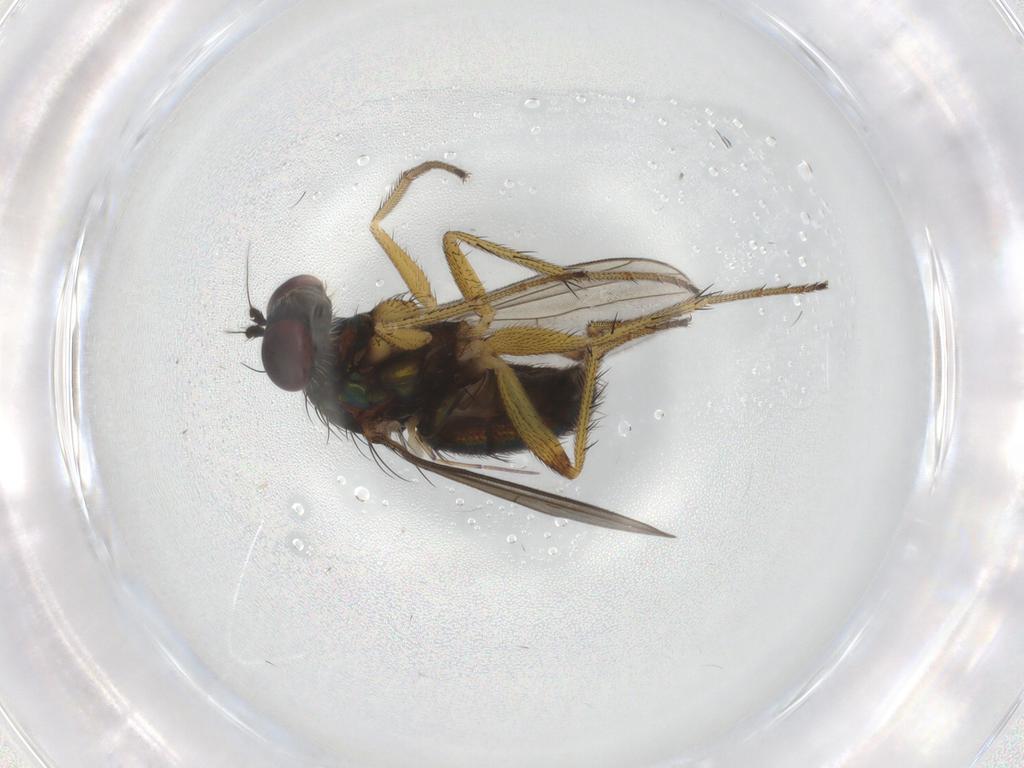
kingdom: Animalia
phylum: Arthropoda
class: Insecta
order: Diptera
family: Dolichopodidae
